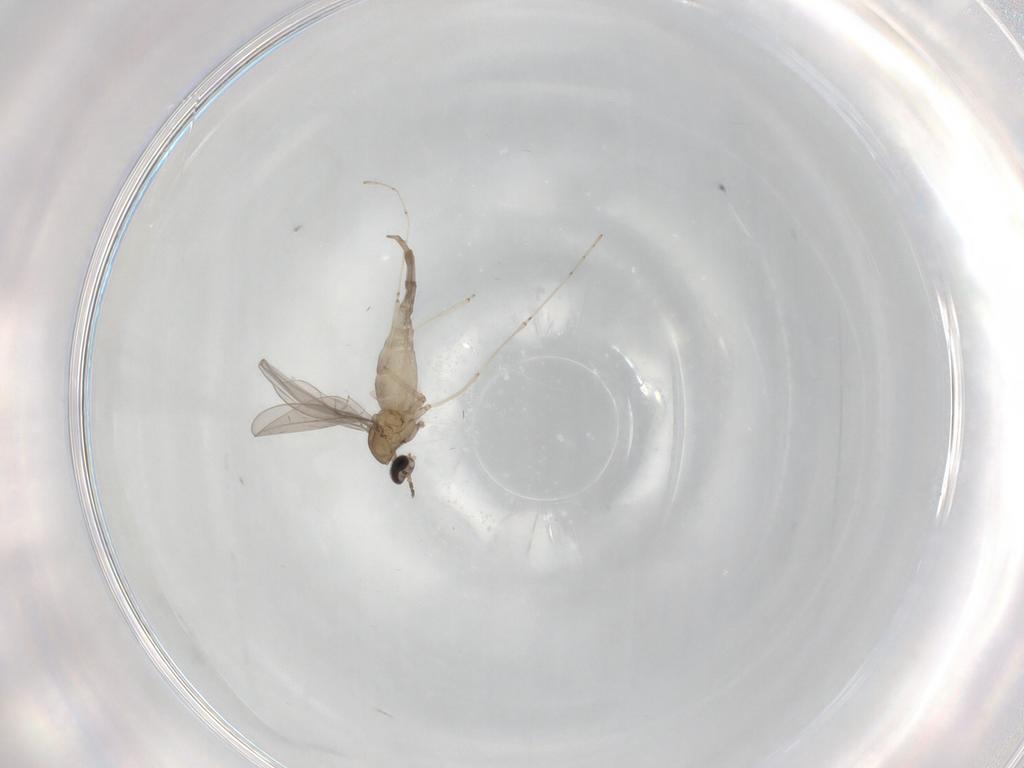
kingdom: Animalia
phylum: Arthropoda
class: Insecta
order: Diptera
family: Cecidomyiidae
